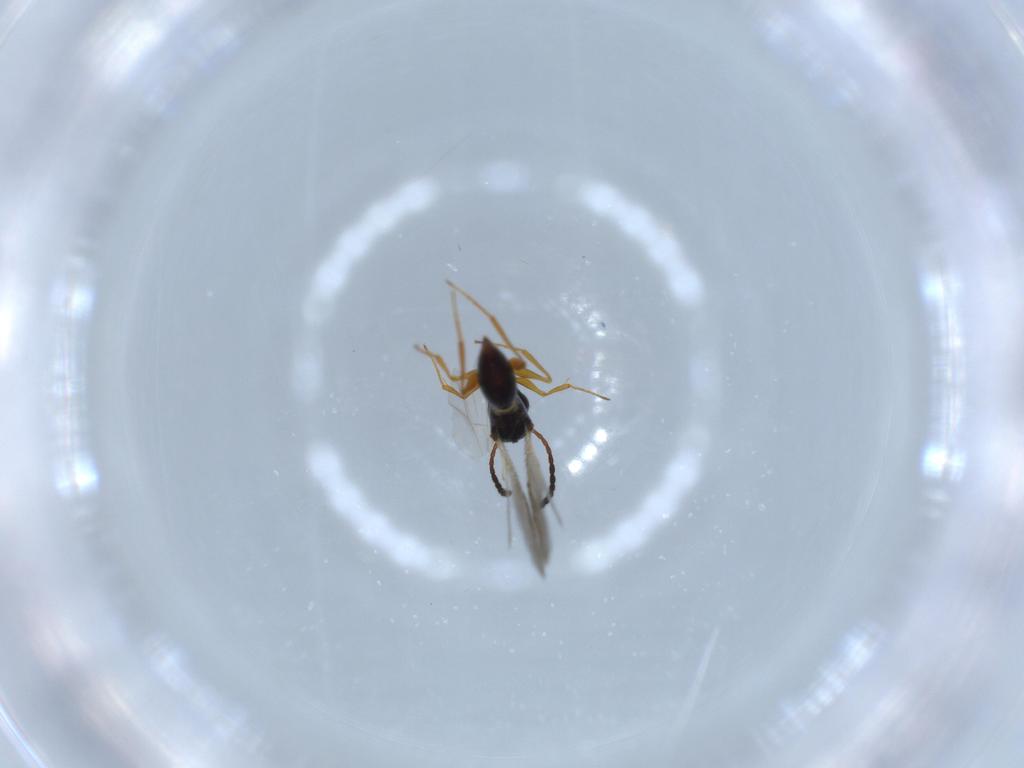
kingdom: Animalia
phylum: Arthropoda
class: Insecta
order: Hymenoptera
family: Figitidae
